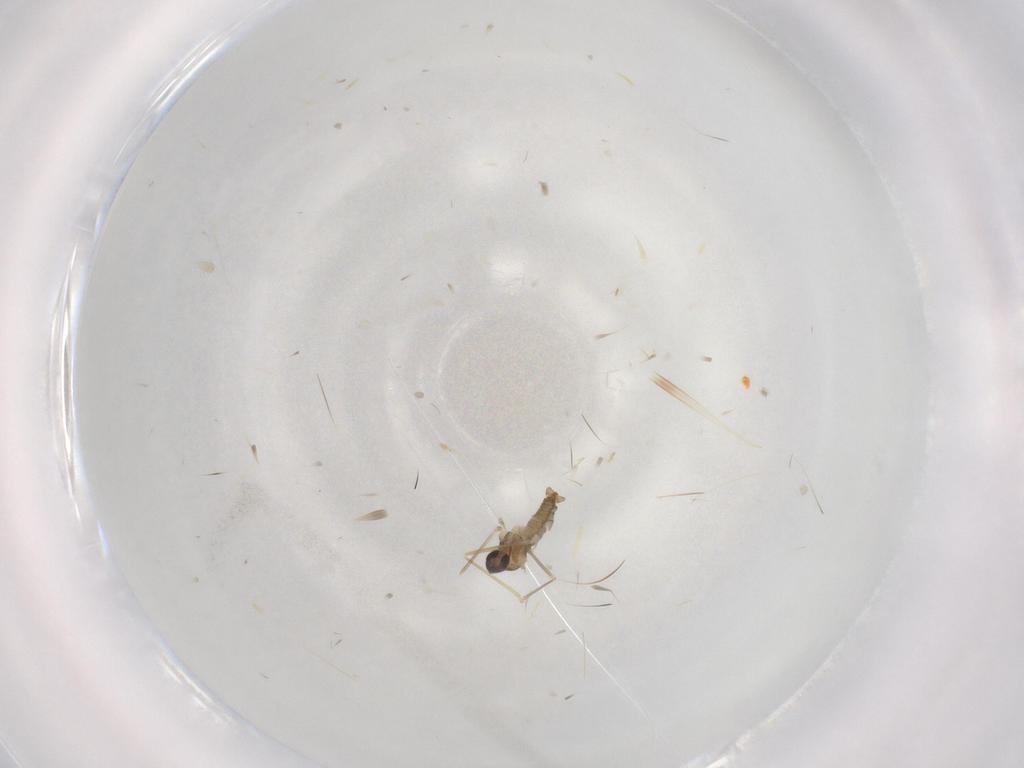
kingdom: Animalia
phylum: Arthropoda
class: Insecta
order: Diptera
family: Cecidomyiidae
